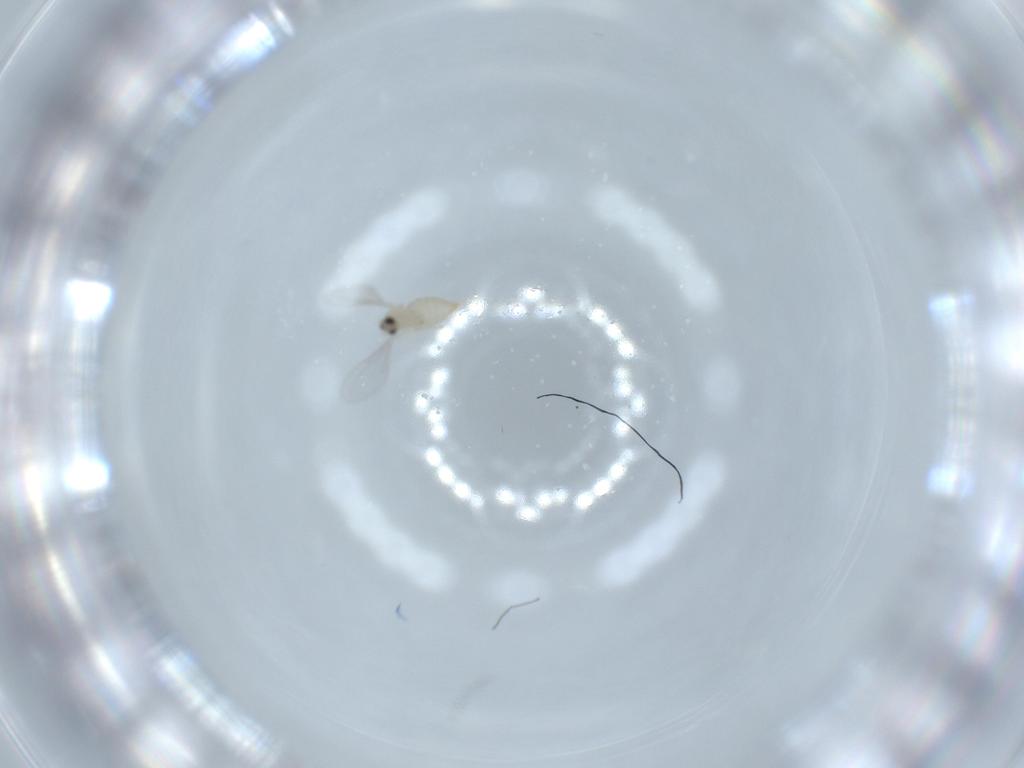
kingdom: Animalia
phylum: Arthropoda
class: Insecta
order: Diptera
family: Cecidomyiidae
